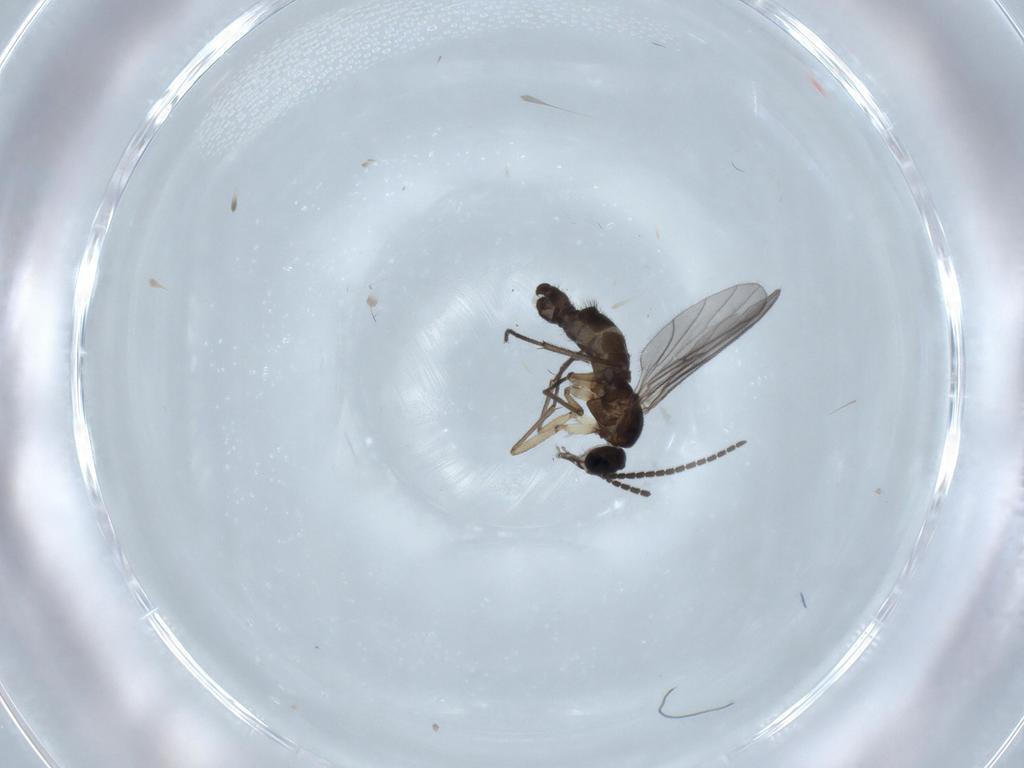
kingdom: Animalia
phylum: Arthropoda
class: Insecta
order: Diptera
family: Sciaridae
